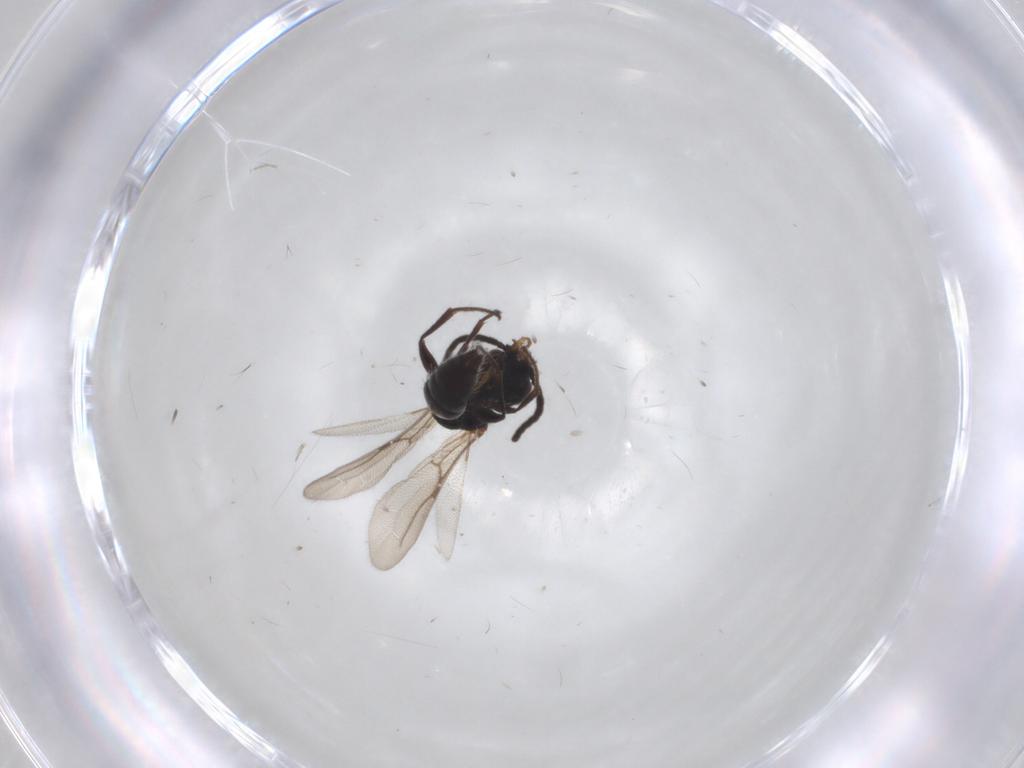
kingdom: Animalia
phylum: Arthropoda
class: Insecta
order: Hymenoptera
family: Bethylidae
